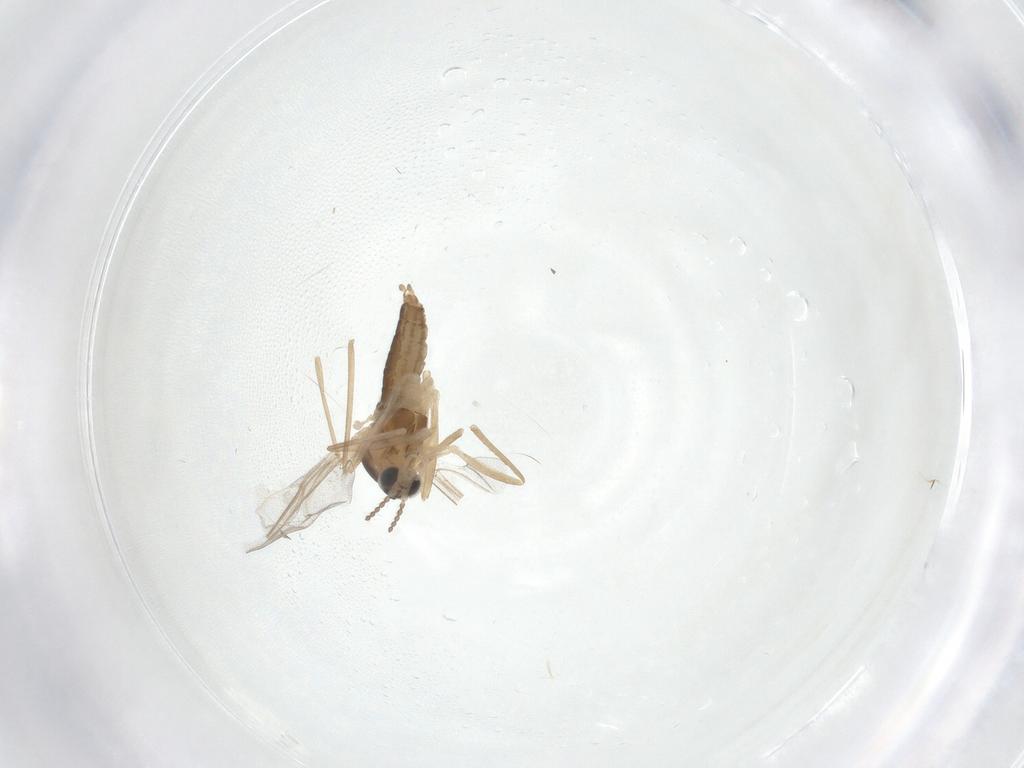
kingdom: Animalia
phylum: Arthropoda
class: Insecta
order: Diptera
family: Cecidomyiidae
